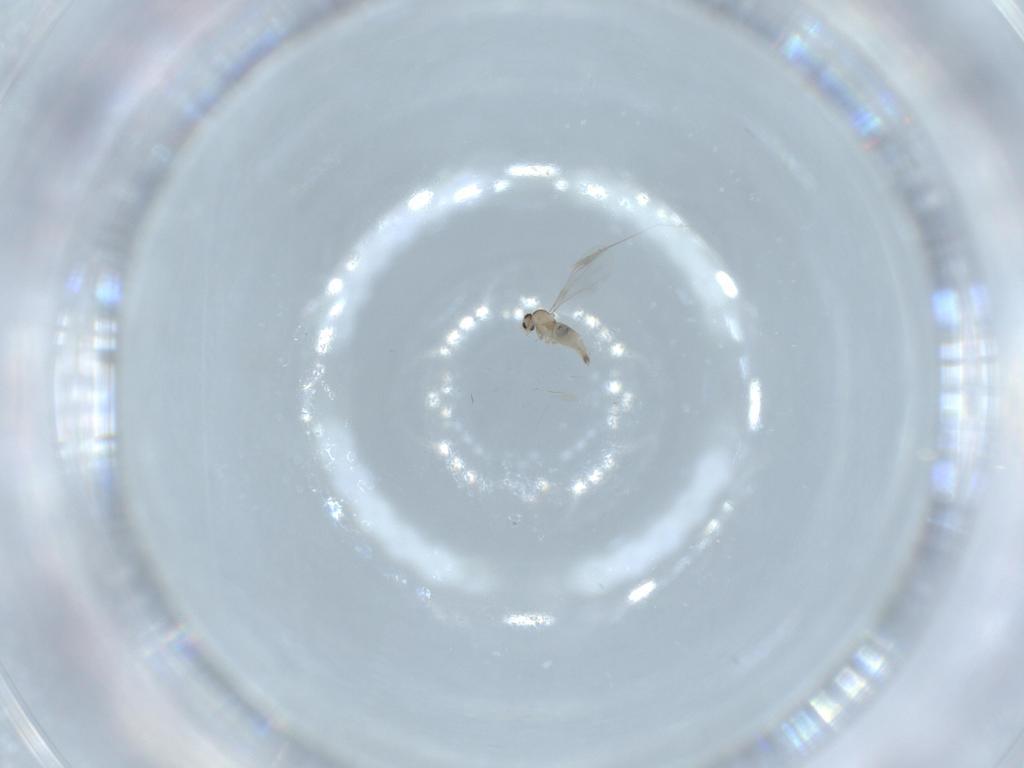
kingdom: Animalia
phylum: Arthropoda
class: Insecta
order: Diptera
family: Cecidomyiidae
